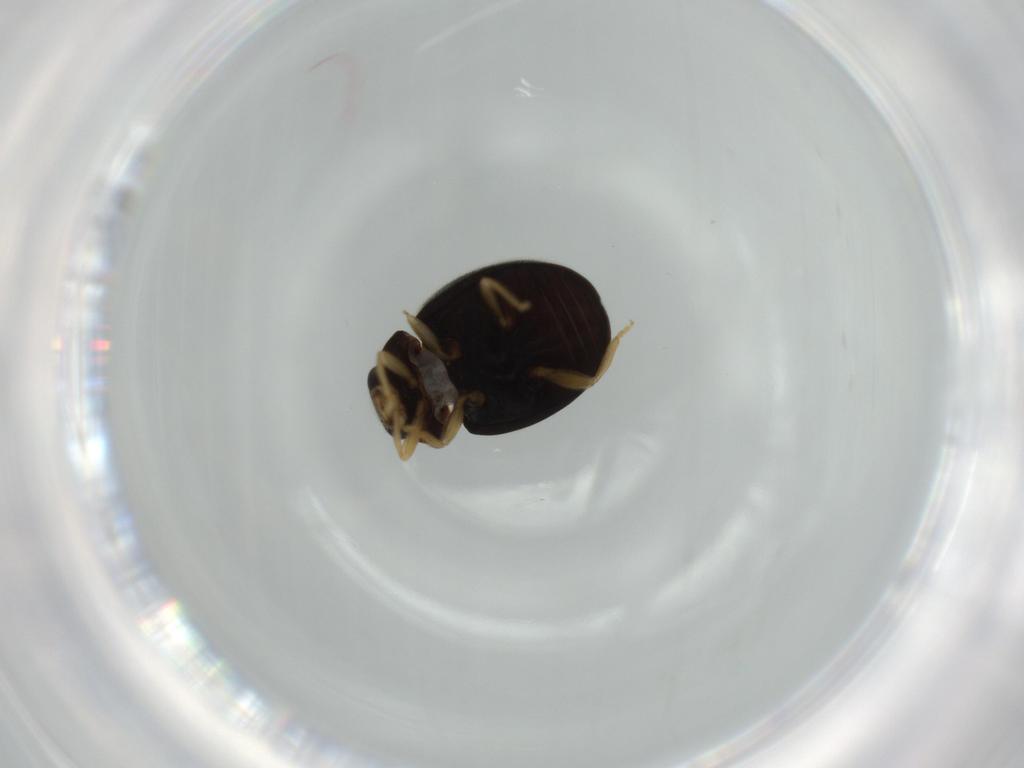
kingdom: Animalia
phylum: Arthropoda
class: Insecta
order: Coleoptera
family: Coccinellidae
